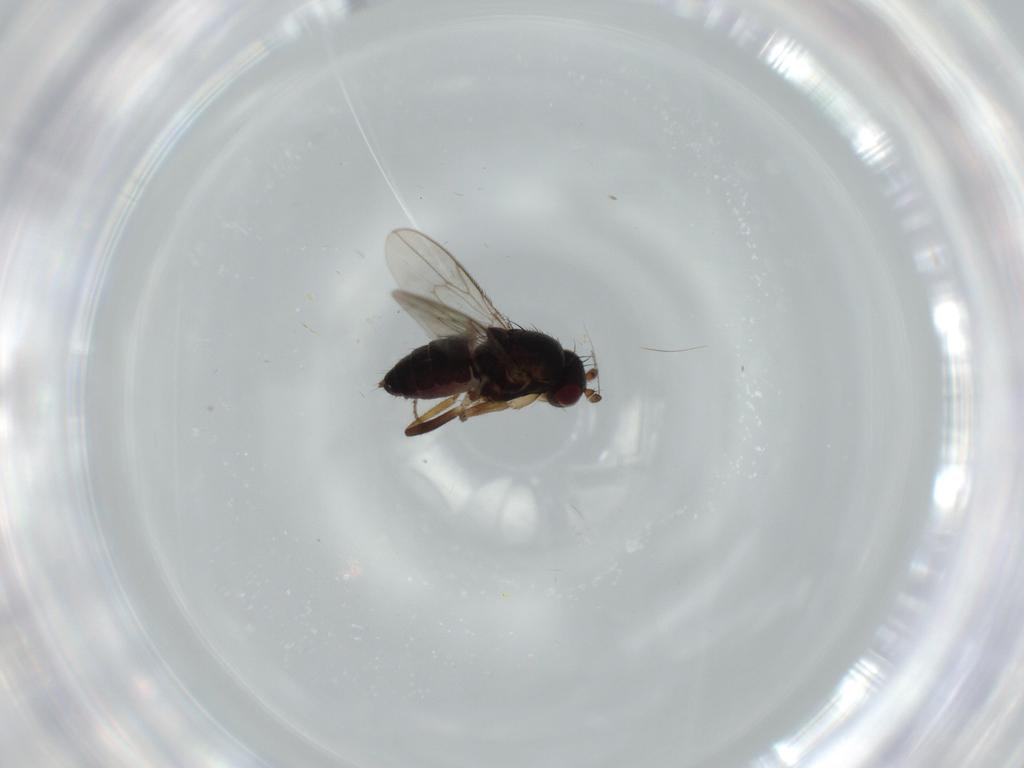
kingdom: Animalia
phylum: Arthropoda
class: Insecta
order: Diptera
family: Sphaeroceridae
